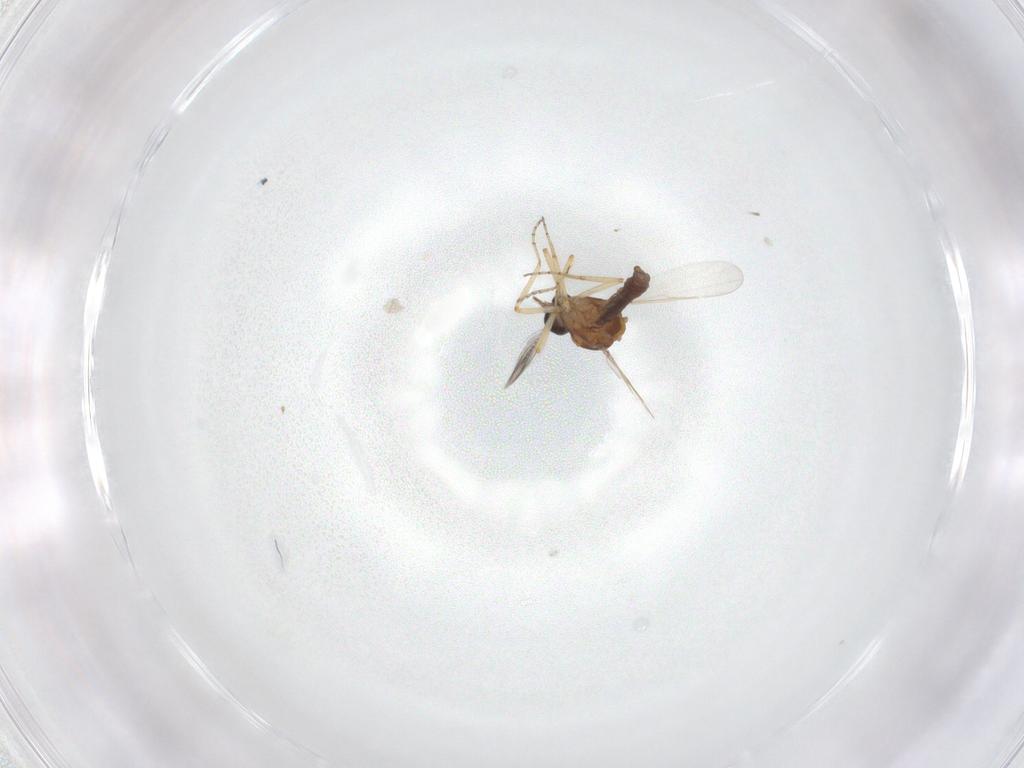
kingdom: Animalia
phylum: Arthropoda
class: Insecta
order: Diptera
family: Ceratopogonidae
